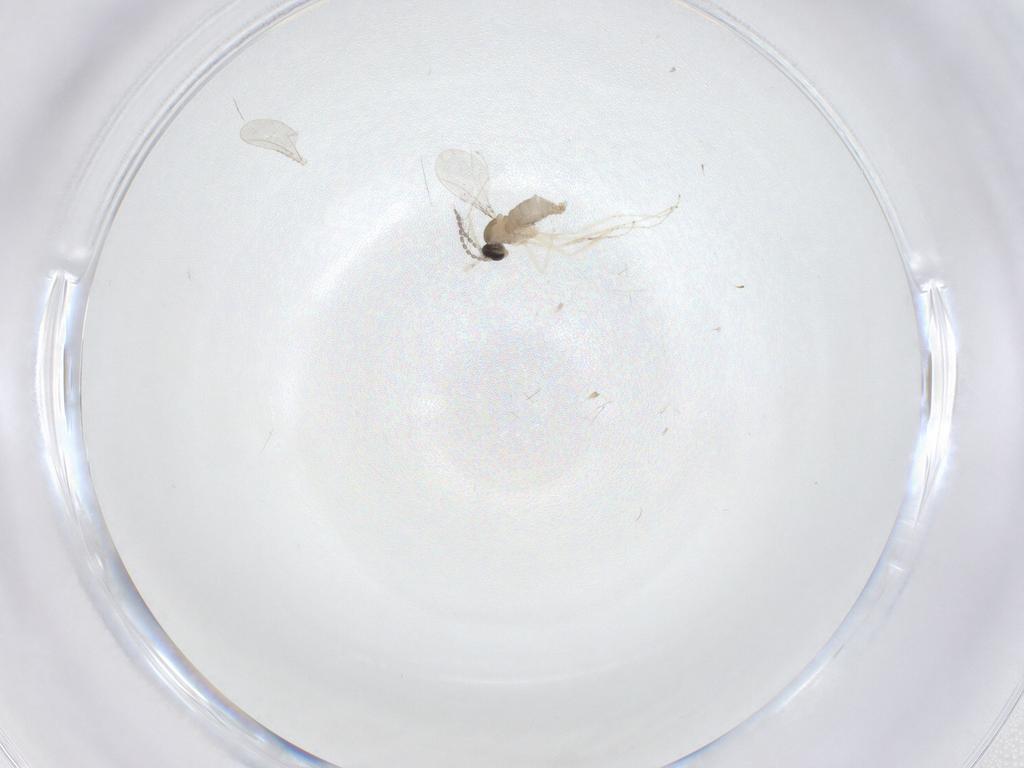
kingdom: Animalia
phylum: Arthropoda
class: Insecta
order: Diptera
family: Cecidomyiidae
